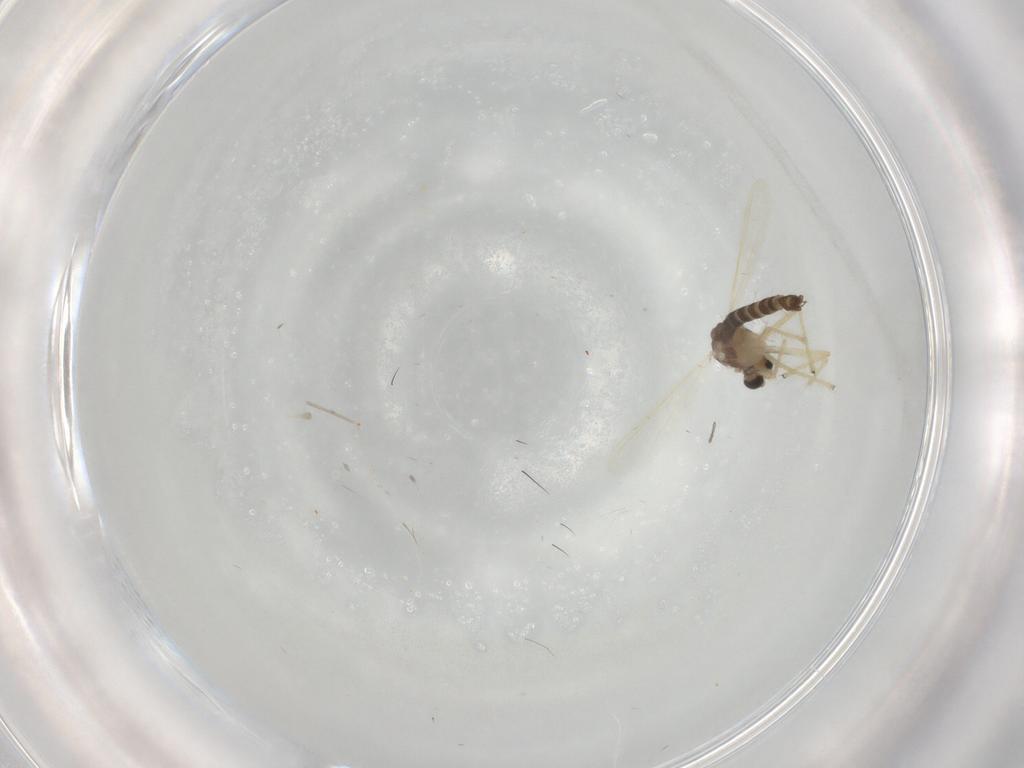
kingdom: Animalia
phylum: Arthropoda
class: Insecta
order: Diptera
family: Chironomidae
